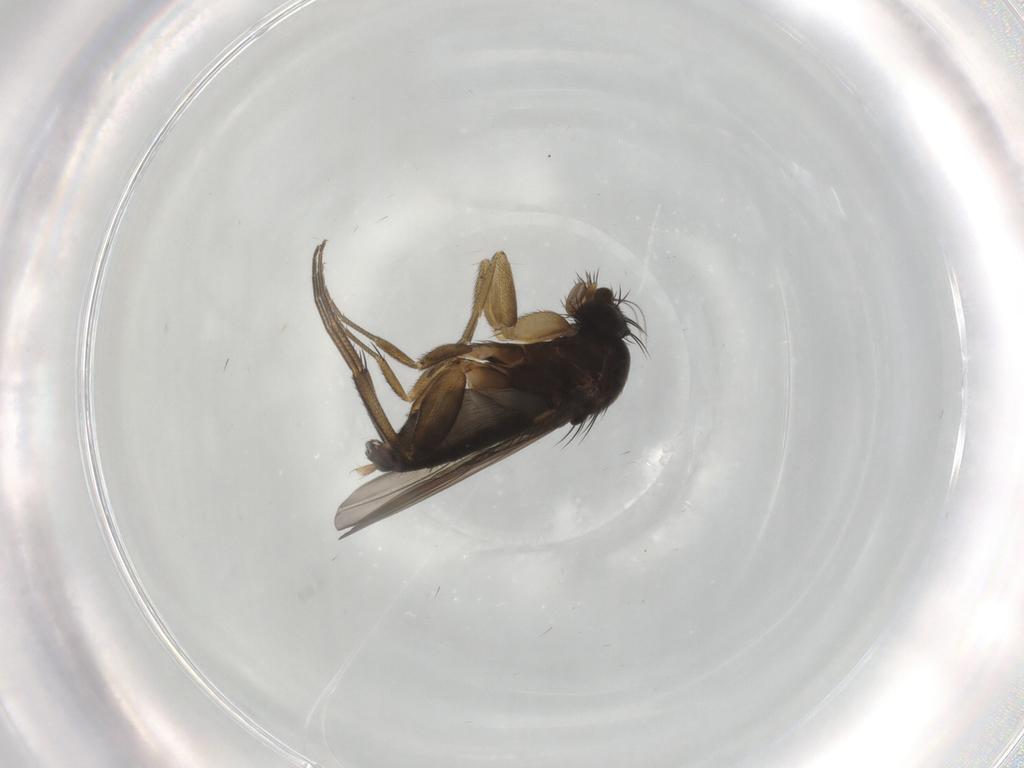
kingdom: Animalia
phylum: Arthropoda
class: Insecta
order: Diptera
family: Phoridae
